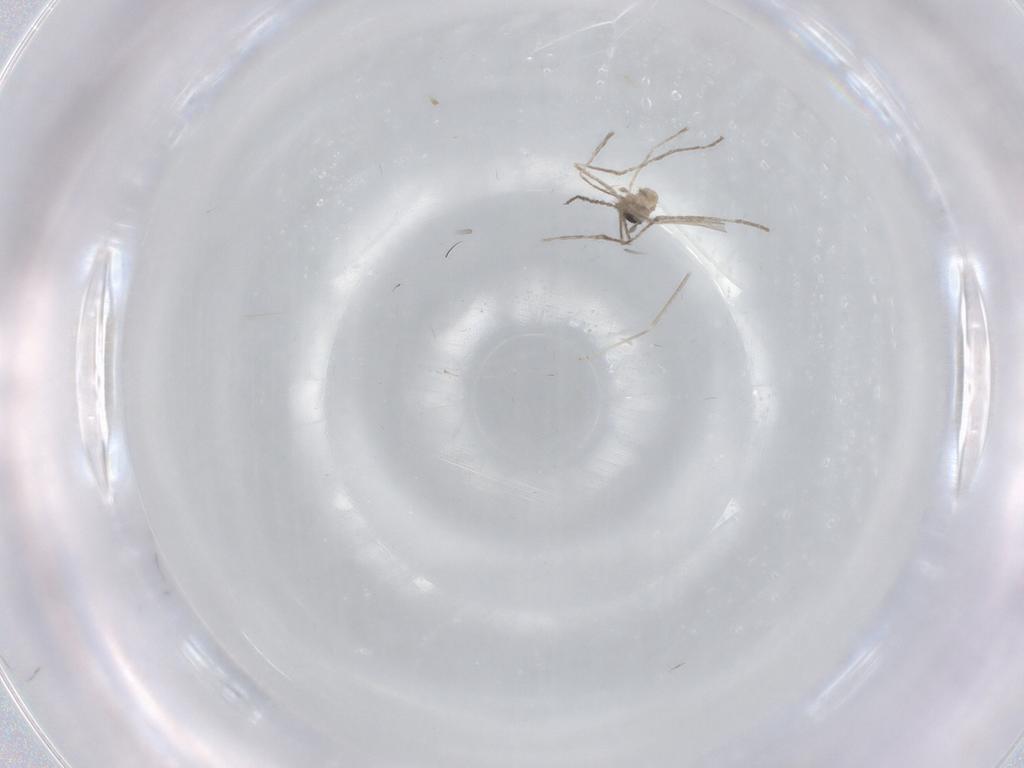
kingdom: Animalia
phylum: Arthropoda
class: Insecta
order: Diptera
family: Cecidomyiidae
